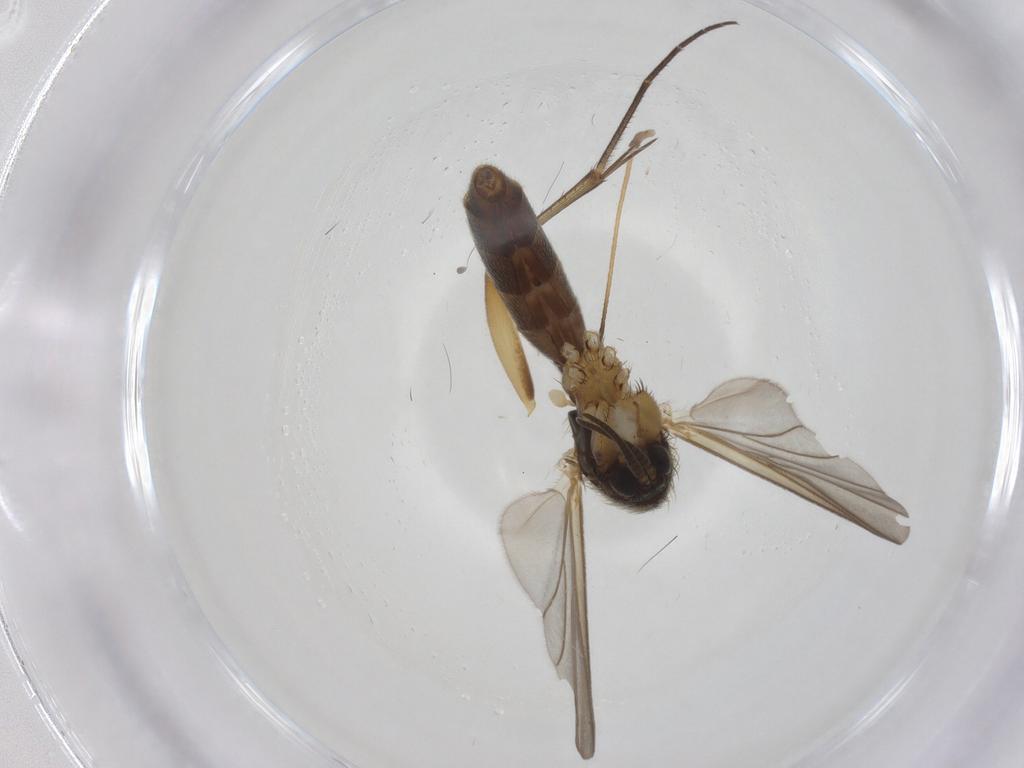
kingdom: Animalia
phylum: Arthropoda
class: Insecta
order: Diptera
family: Mycetophilidae
